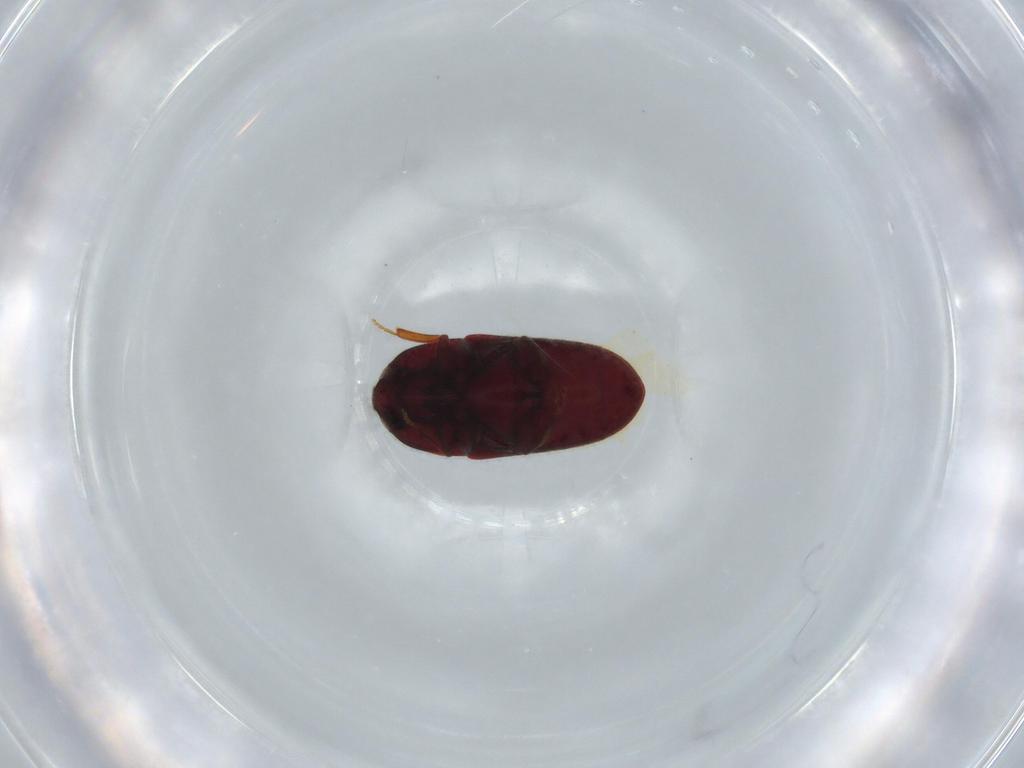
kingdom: Animalia
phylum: Arthropoda
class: Insecta
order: Coleoptera
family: Throscidae
